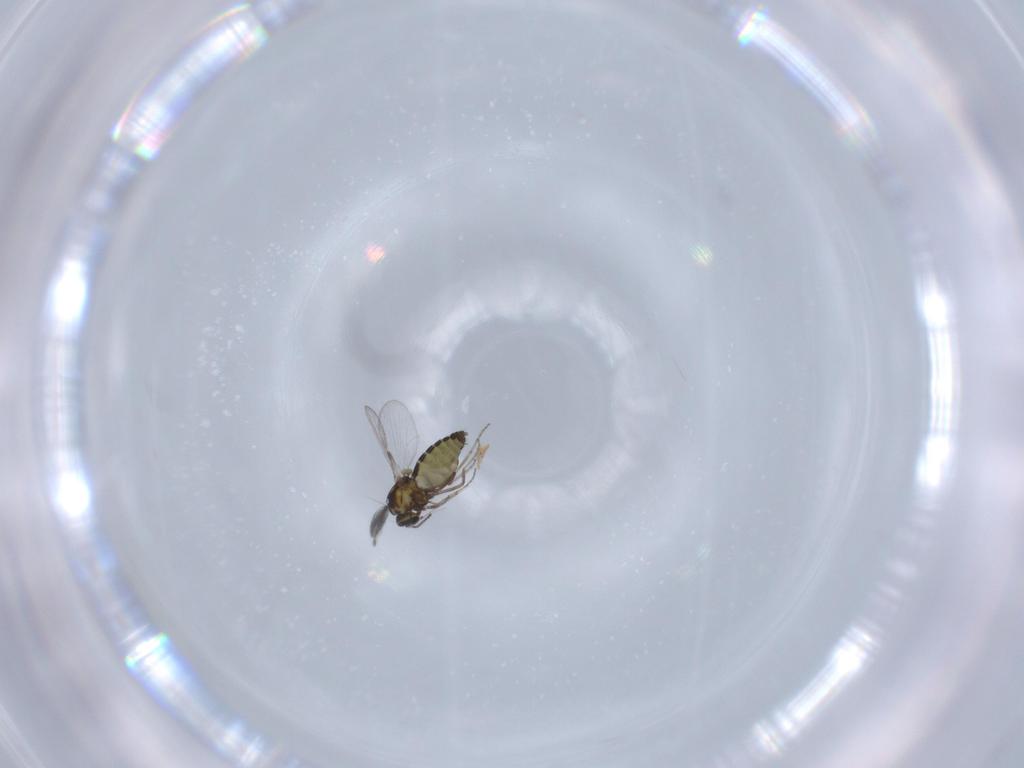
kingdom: Animalia
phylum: Arthropoda
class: Insecta
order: Diptera
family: Ceratopogonidae
